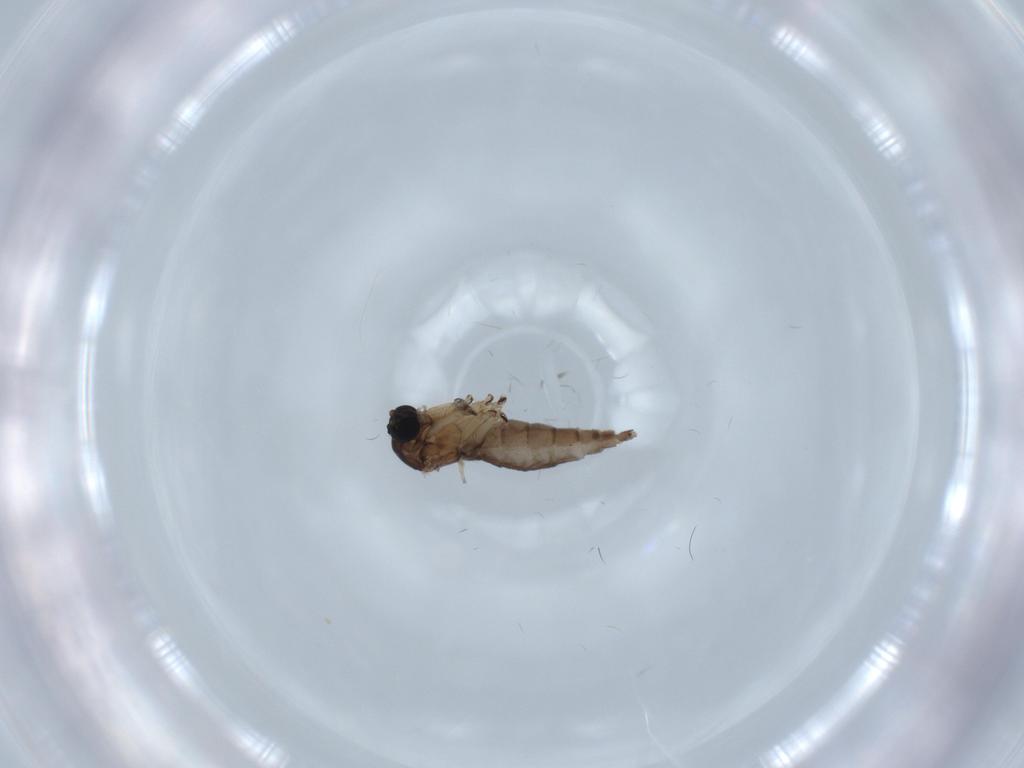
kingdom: Animalia
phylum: Arthropoda
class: Insecta
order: Diptera
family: Sciaridae
